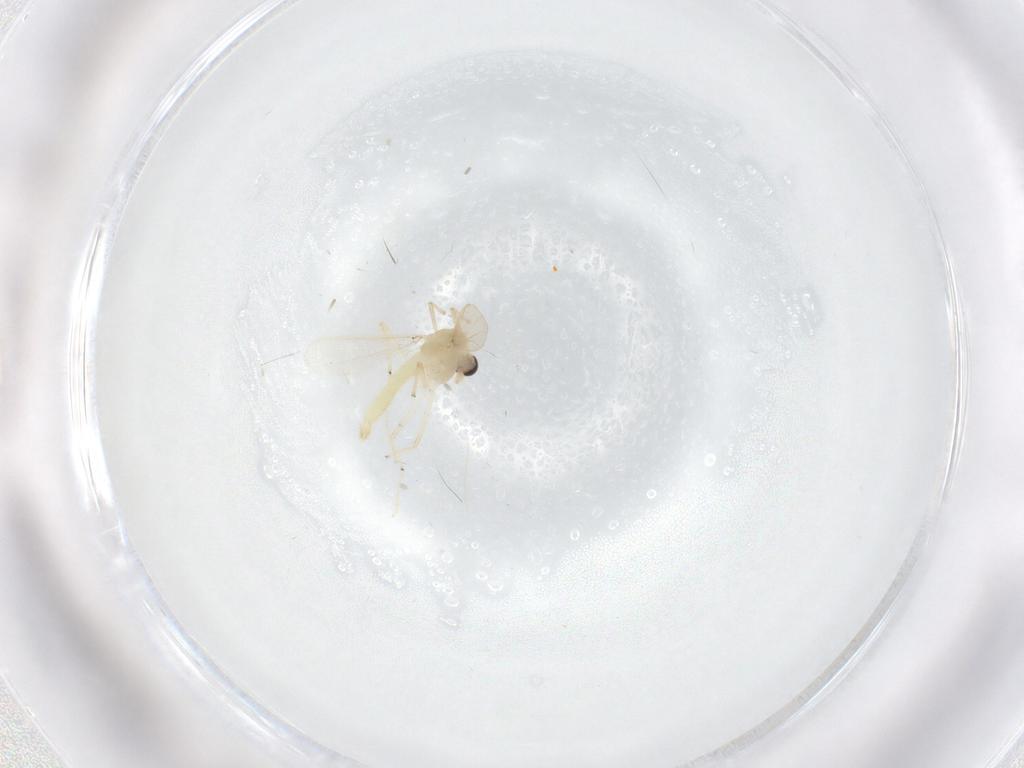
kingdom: Animalia
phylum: Arthropoda
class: Insecta
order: Diptera
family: Chironomidae
